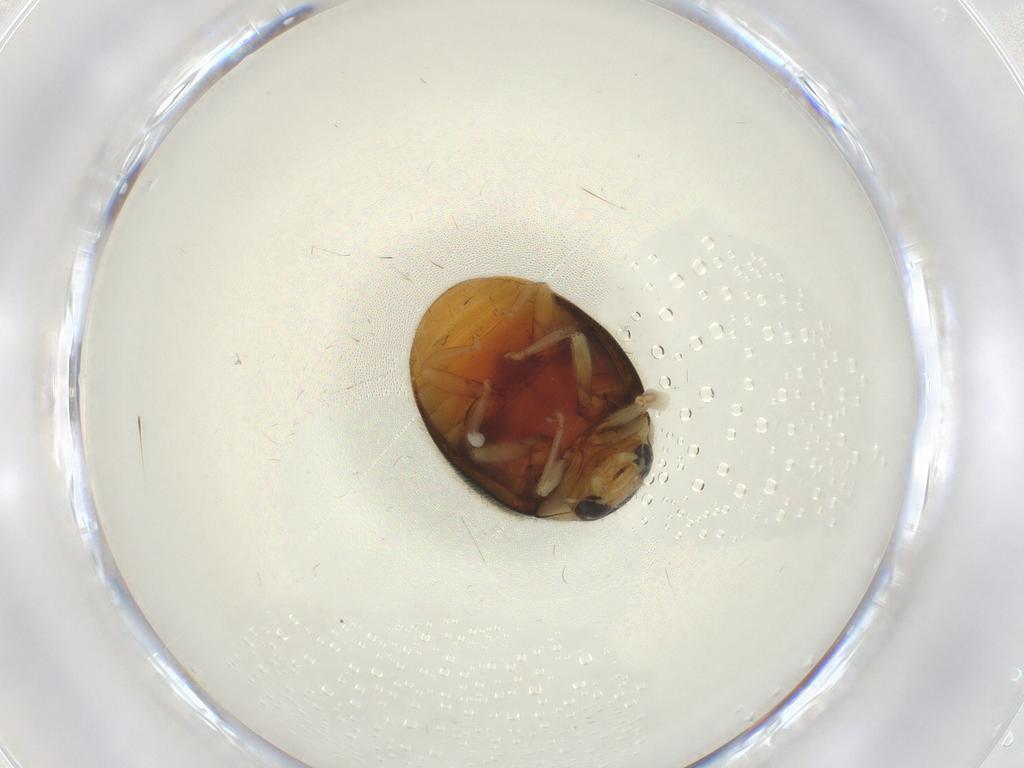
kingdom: Animalia
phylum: Arthropoda
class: Insecta
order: Coleoptera
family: Coccinellidae
